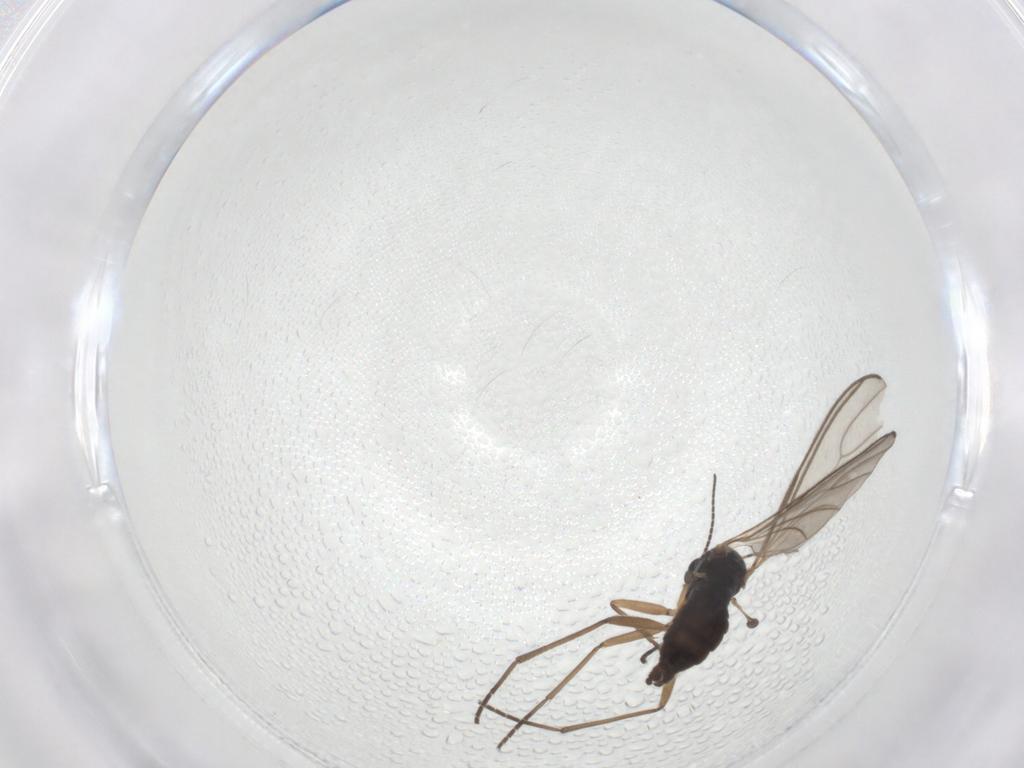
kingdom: Animalia
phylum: Arthropoda
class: Insecta
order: Diptera
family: Sciaridae
